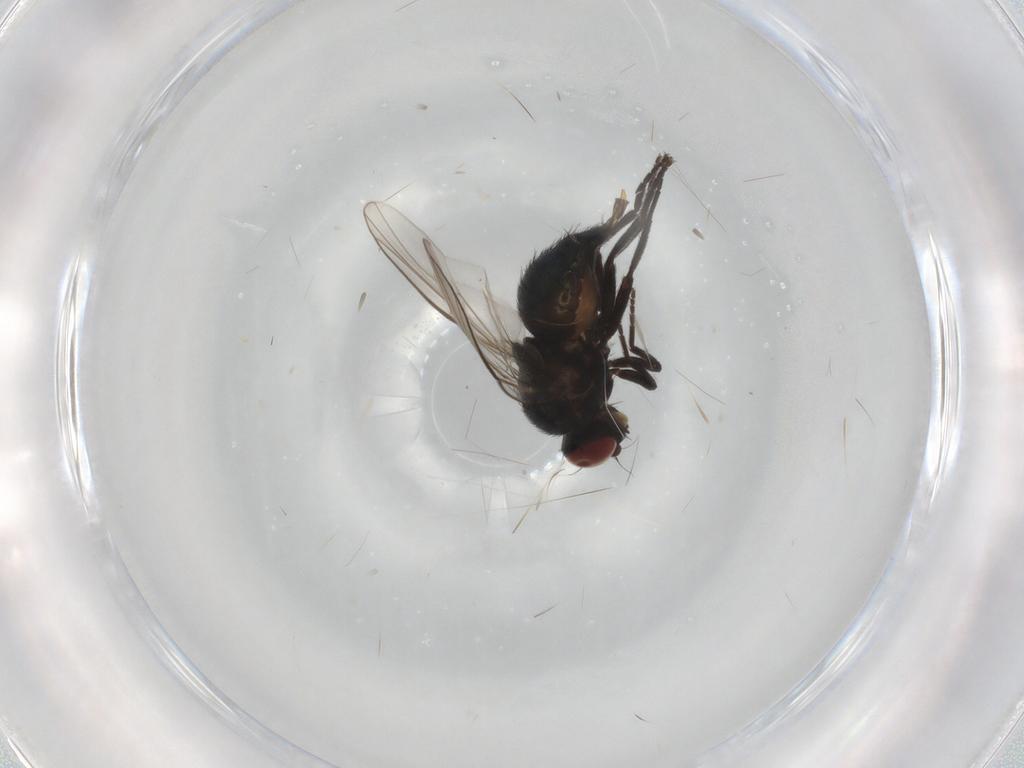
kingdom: Animalia
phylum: Arthropoda
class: Insecta
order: Diptera
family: Agromyzidae
